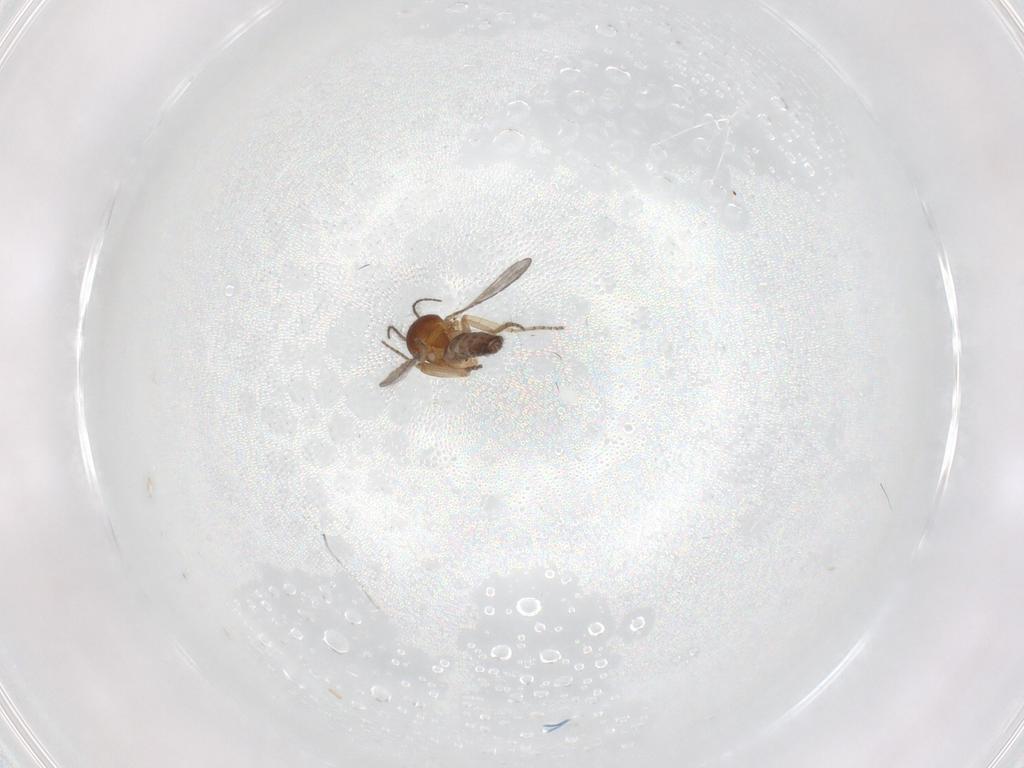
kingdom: Animalia
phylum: Arthropoda
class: Insecta
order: Diptera
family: Ceratopogonidae
